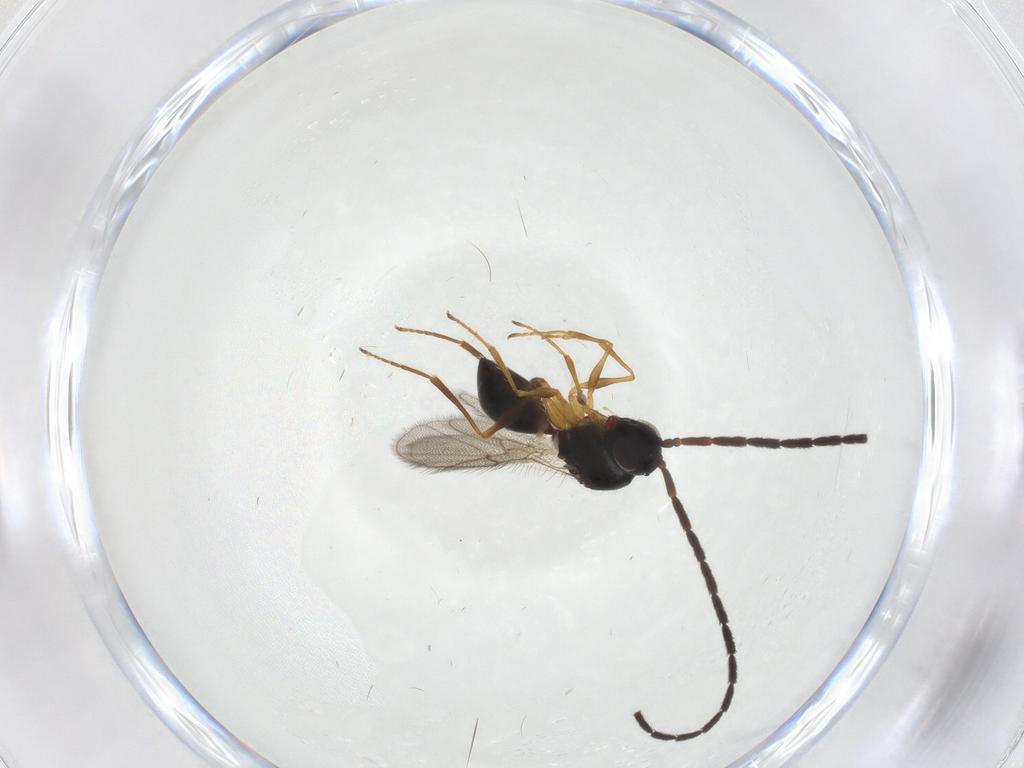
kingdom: Animalia
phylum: Arthropoda
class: Insecta
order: Hymenoptera
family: Figitidae
